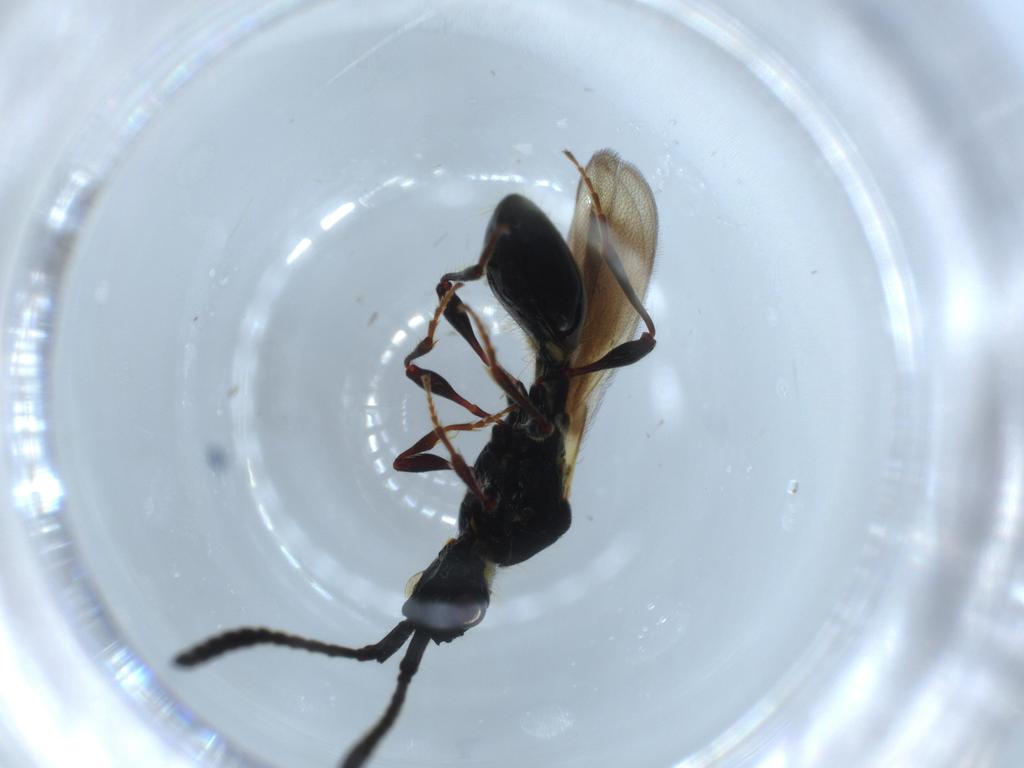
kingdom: Animalia
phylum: Arthropoda
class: Insecta
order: Hymenoptera
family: Diapriidae
